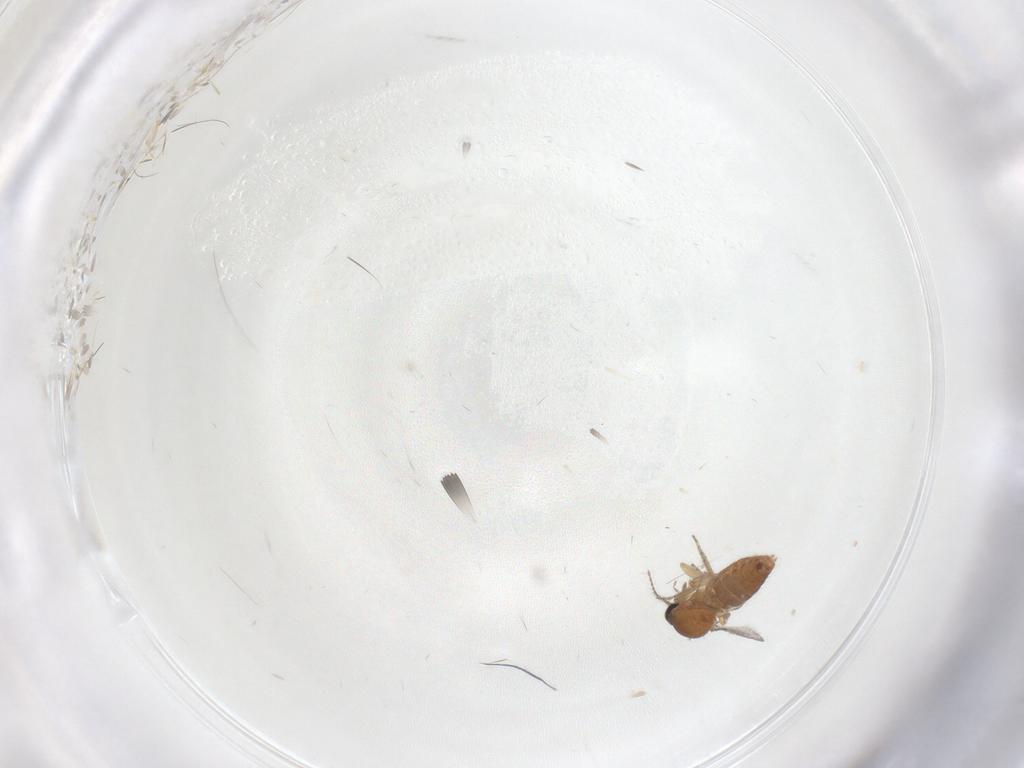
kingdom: Animalia
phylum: Arthropoda
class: Insecta
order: Diptera
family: Ceratopogonidae
